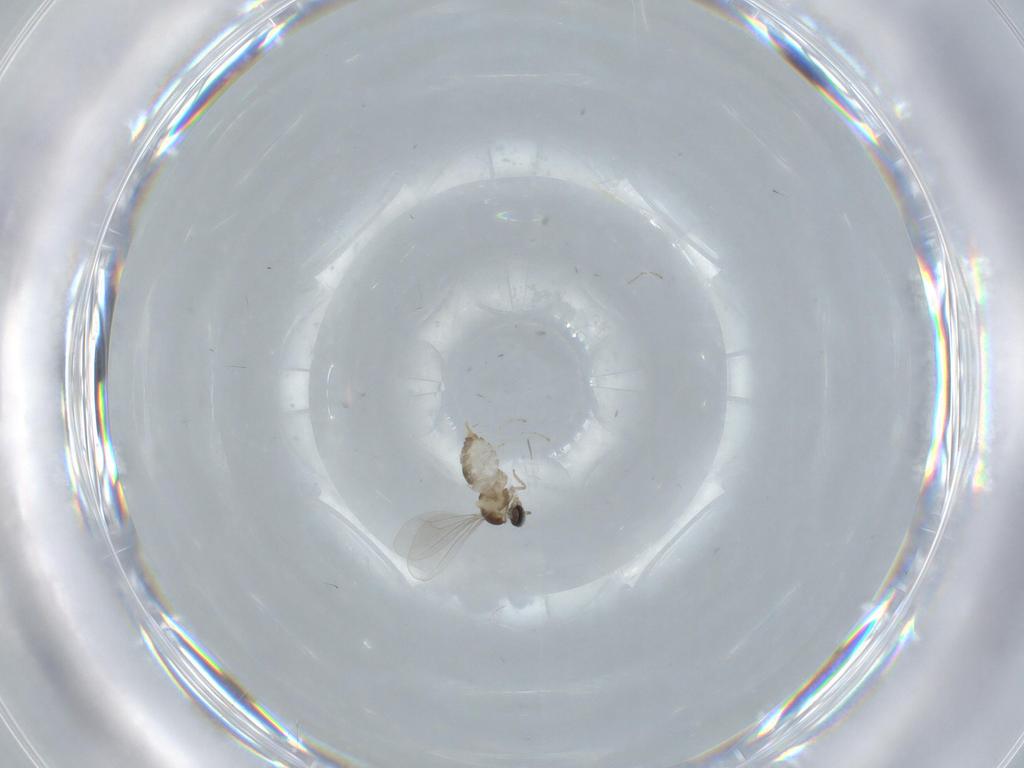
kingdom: Animalia
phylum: Arthropoda
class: Insecta
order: Diptera
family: Cecidomyiidae
